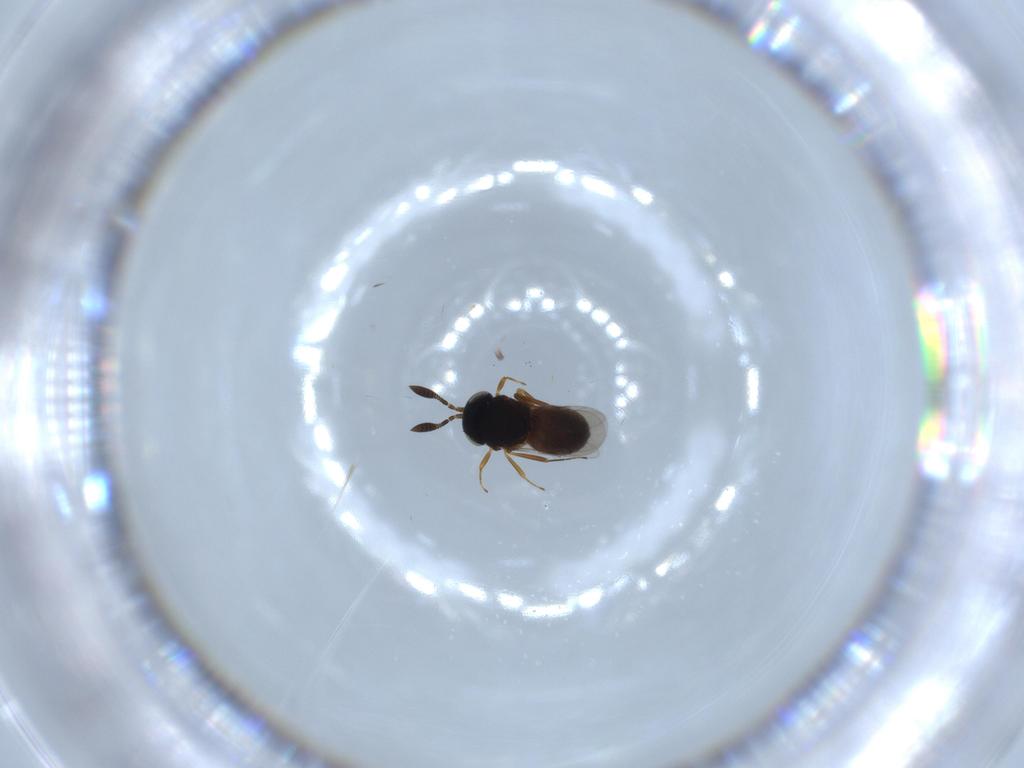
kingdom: Animalia
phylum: Arthropoda
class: Insecta
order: Hymenoptera
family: Scelionidae
